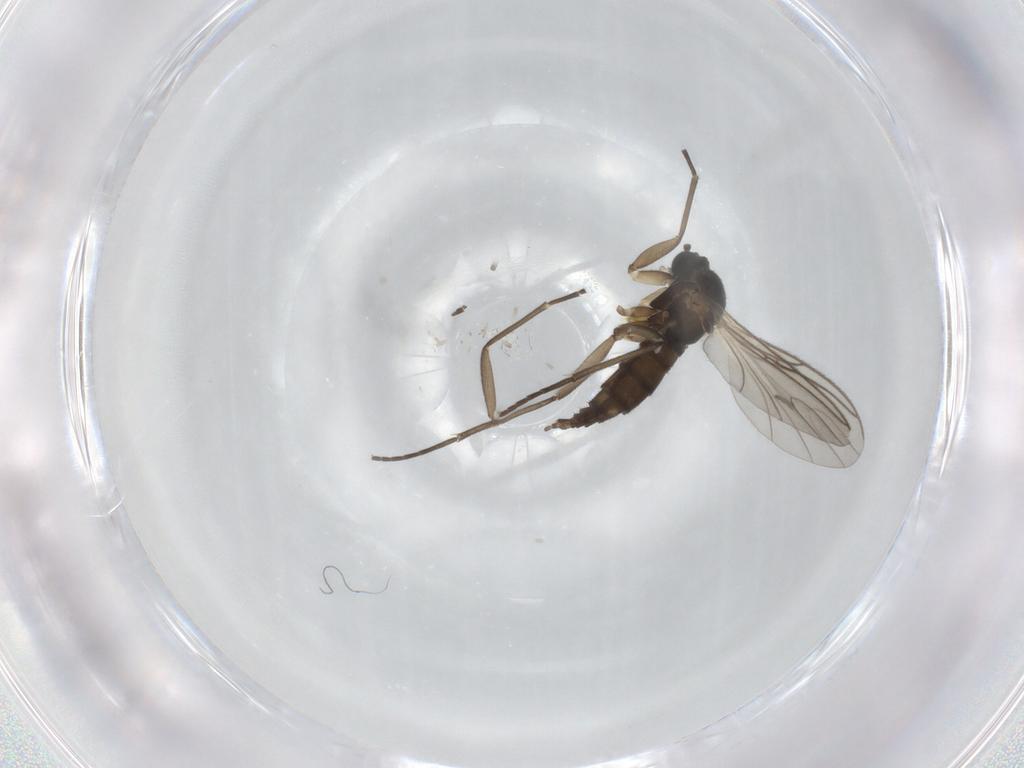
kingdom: Animalia
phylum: Arthropoda
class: Insecta
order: Diptera
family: Sciaridae
